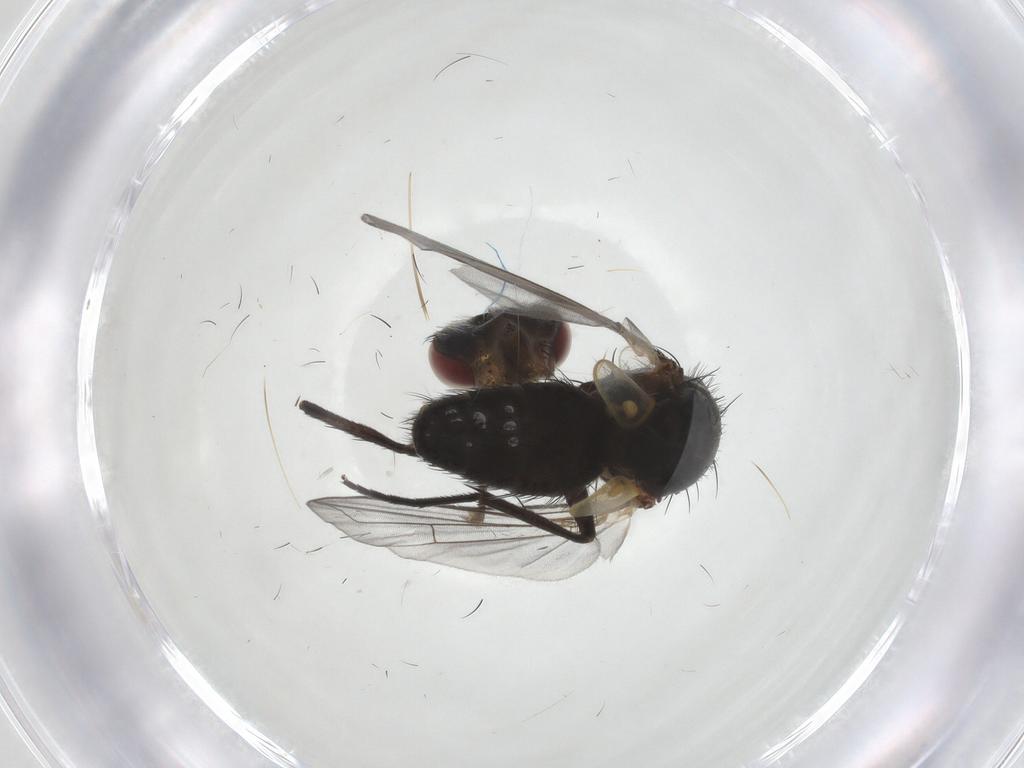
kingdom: Animalia
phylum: Arthropoda
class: Insecta
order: Diptera
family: Tachinidae
